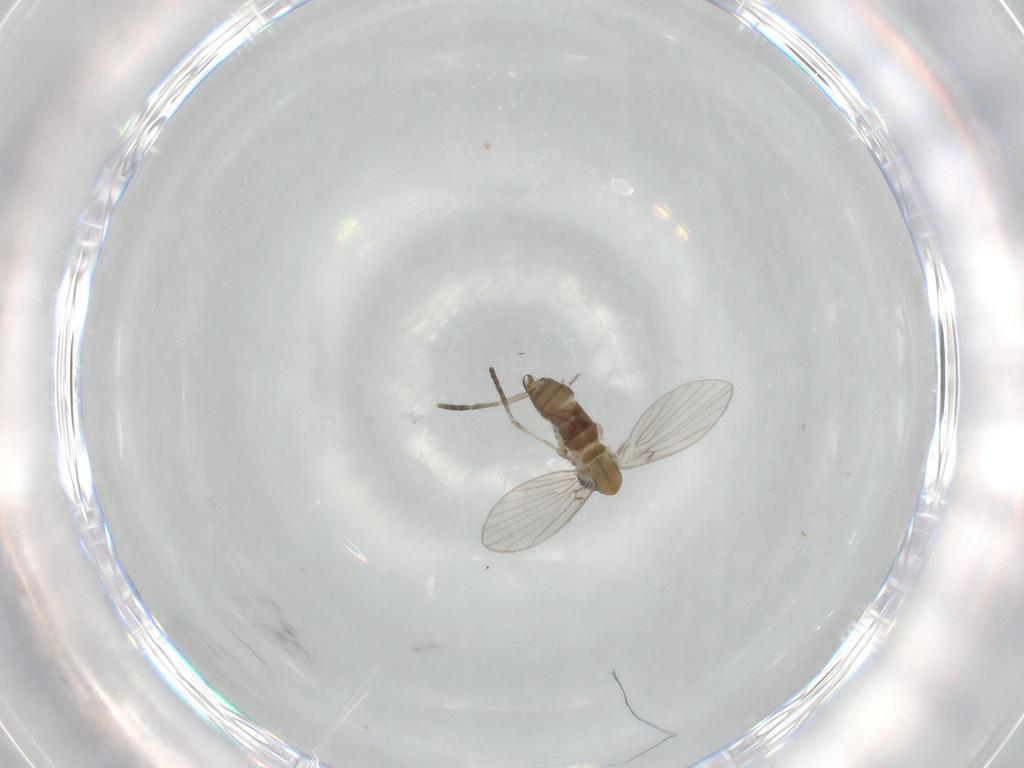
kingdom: Animalia
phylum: Arthropoda
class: Insecta
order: Diptera
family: Psychodidae
